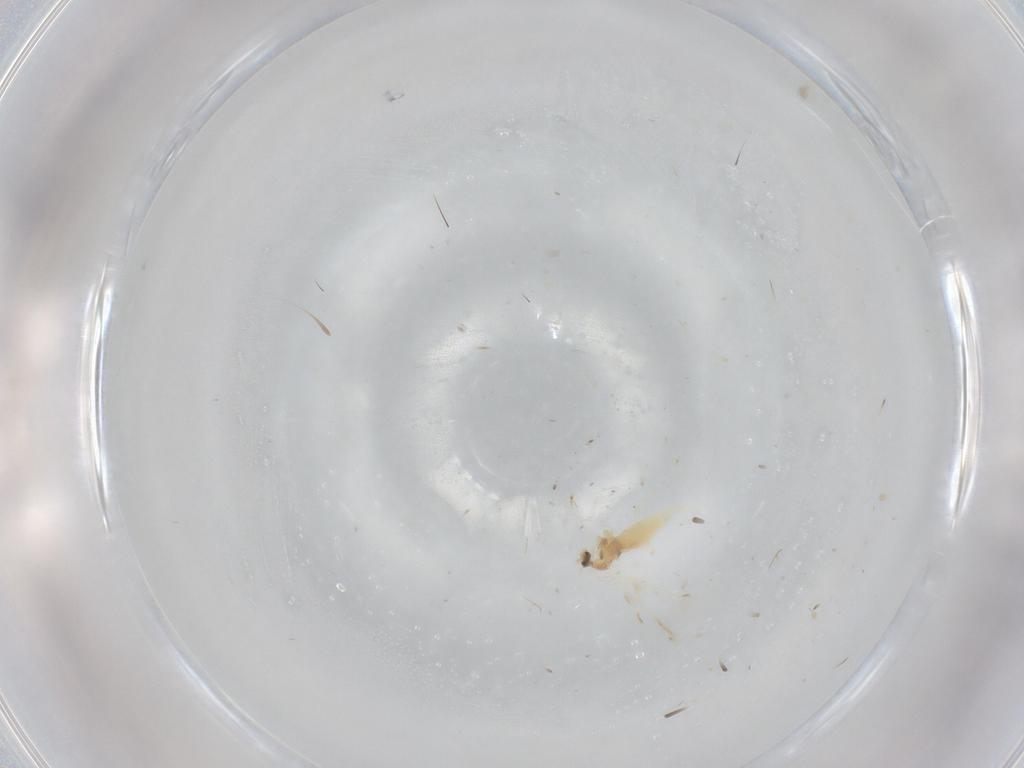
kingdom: Animalia
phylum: Arthropoda
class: Insecta
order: Diptera
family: Cecidomyiidae
